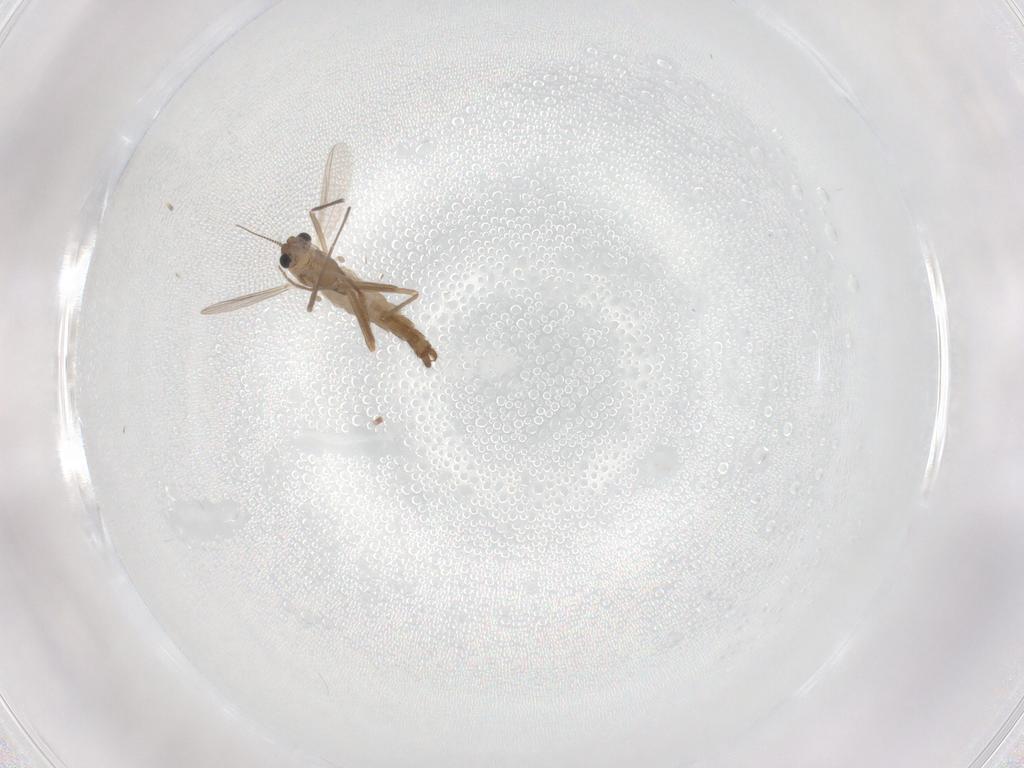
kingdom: Animalia
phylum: Arthropoda
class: Insecta
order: Diptera
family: Chironomidae
